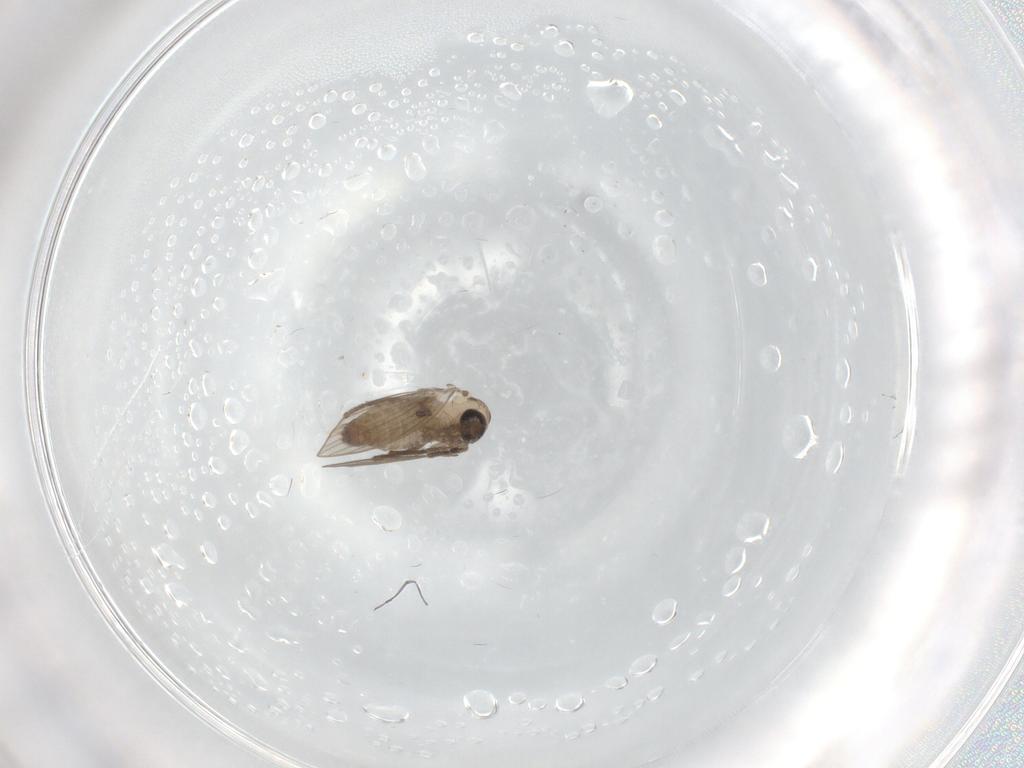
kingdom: Animalia
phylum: Arthropoda
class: Insecta
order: Diptera
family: Psychodidae
